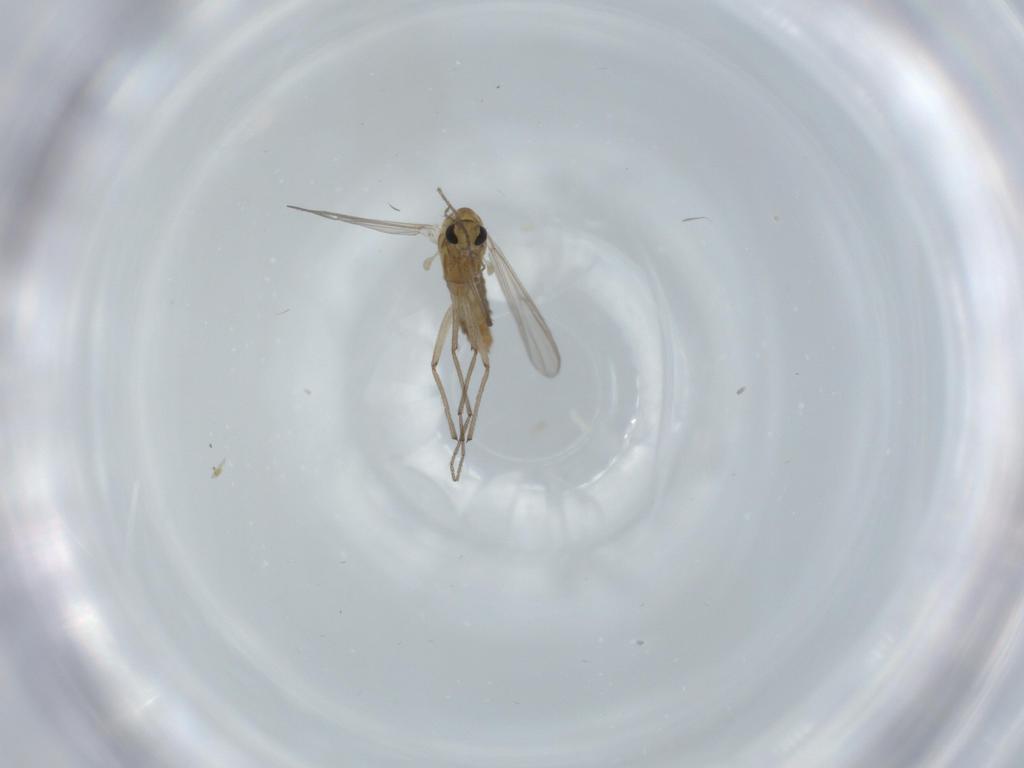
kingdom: Animalia
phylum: Arthropoda
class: Insecta
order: Diptera
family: Chironomidae
